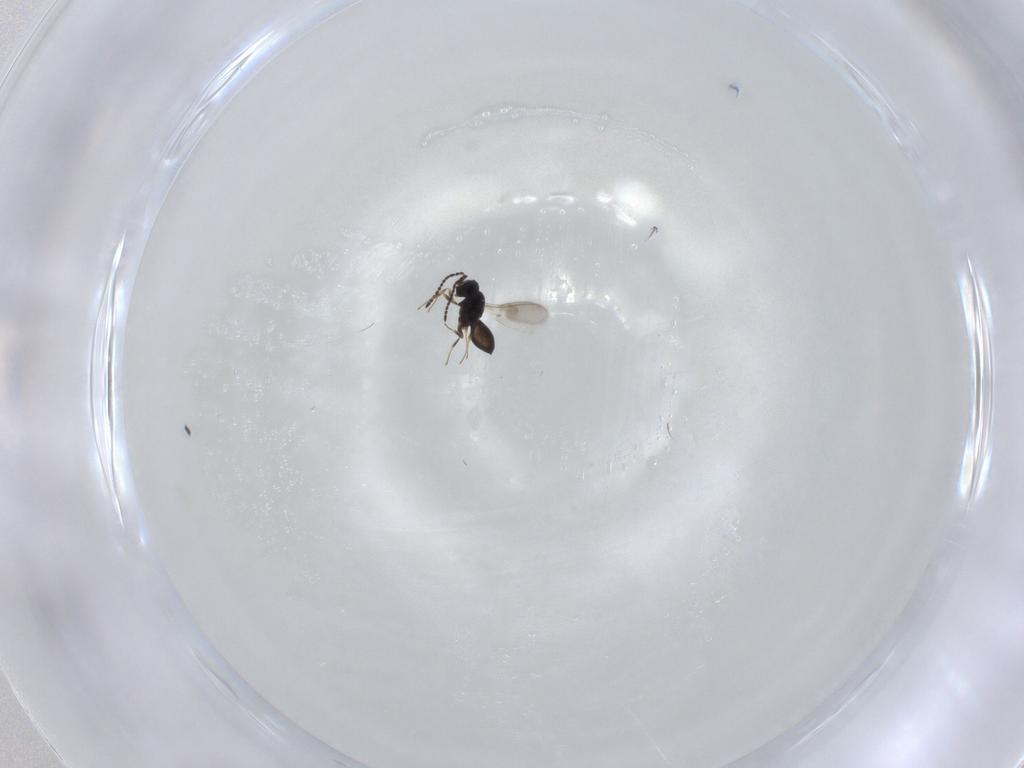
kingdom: Animalia
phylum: Arthropoda
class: Insecta
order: Hymenoptera
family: Scelionidae
